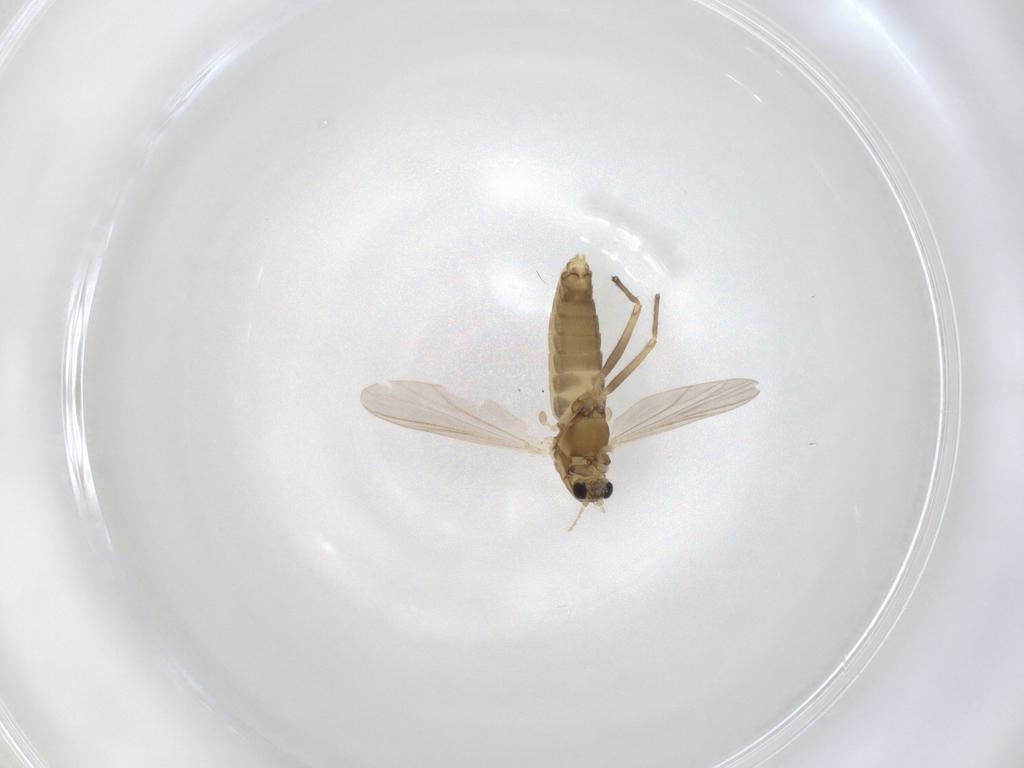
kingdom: Animalia
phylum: Arthropoda
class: Insecta
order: Diptera
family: Chironomidae
